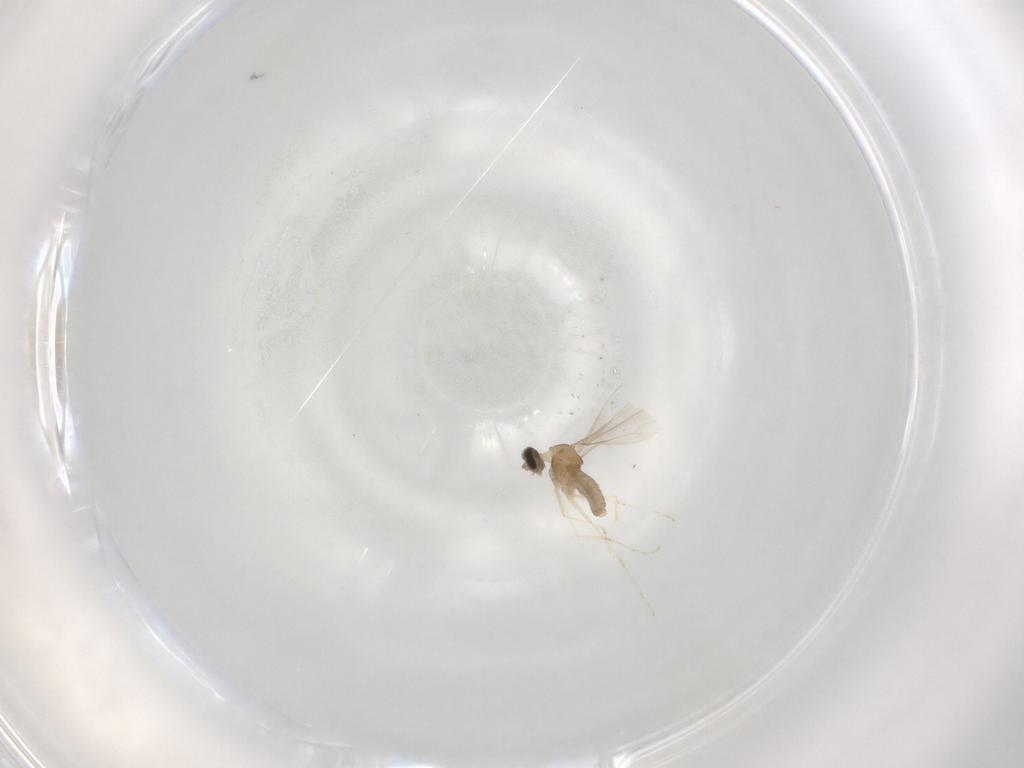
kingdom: Animalia
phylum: Arthropoda
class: Insecta
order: Diptera
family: Cecidomyiidae
